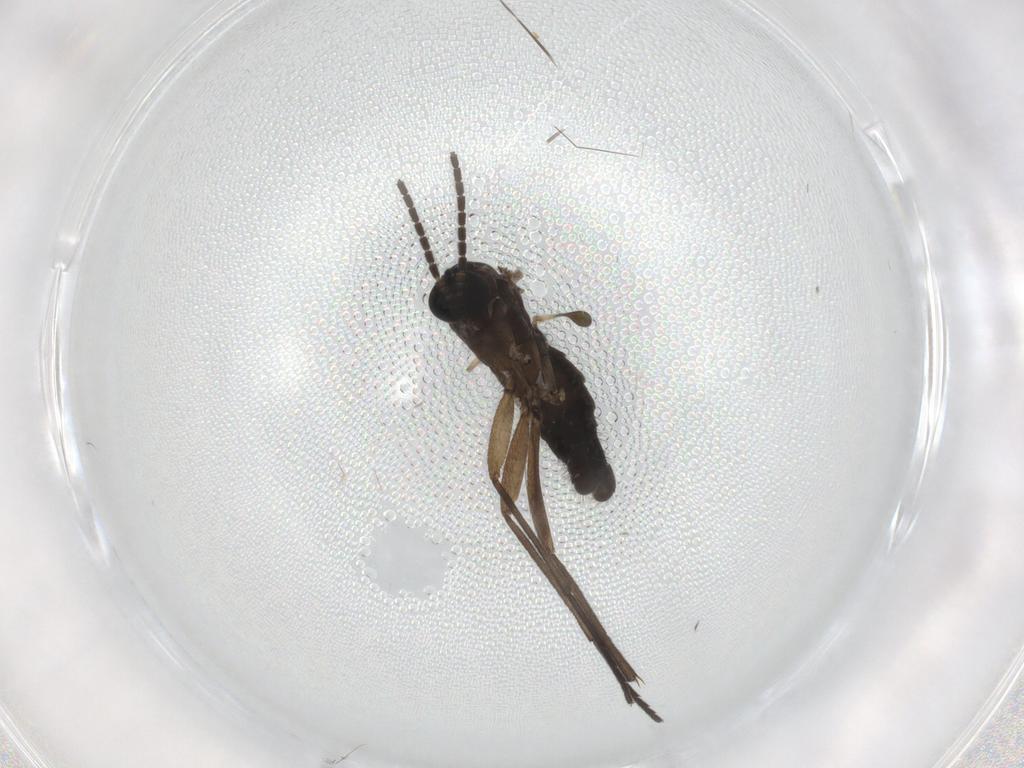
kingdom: Animalia
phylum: Arthropoda
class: Insecta
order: Diptera
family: Sciaridae
